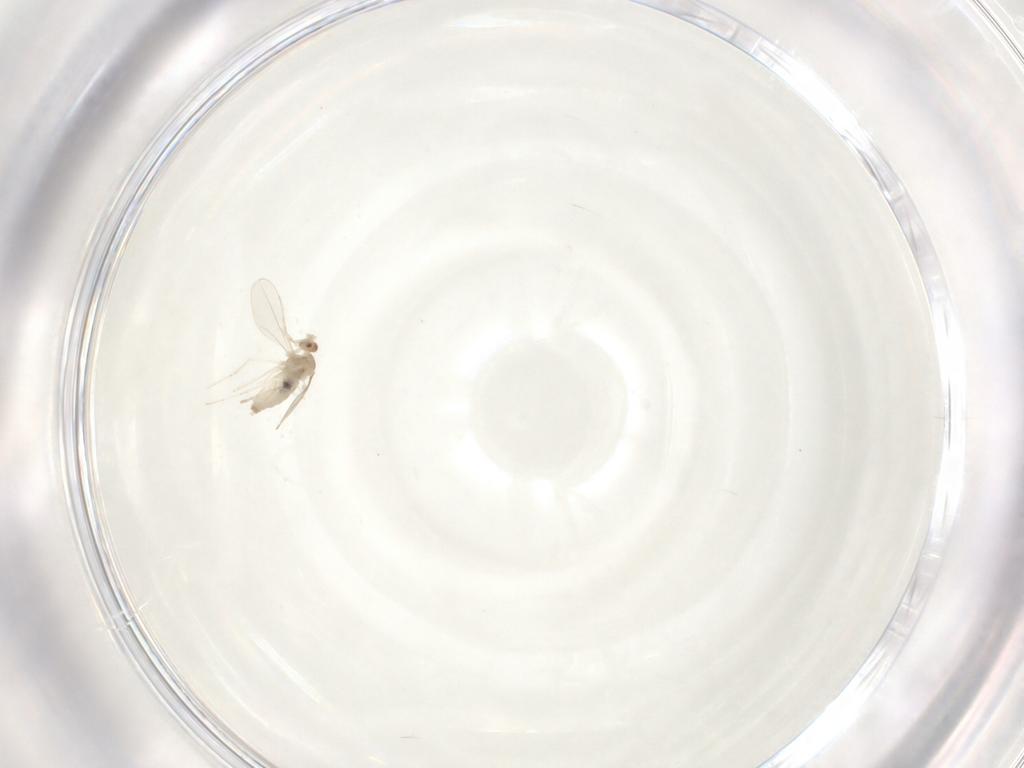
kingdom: Animalia
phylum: Arthropoda
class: Insecta
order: Diptera
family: Cecidomyiidae
